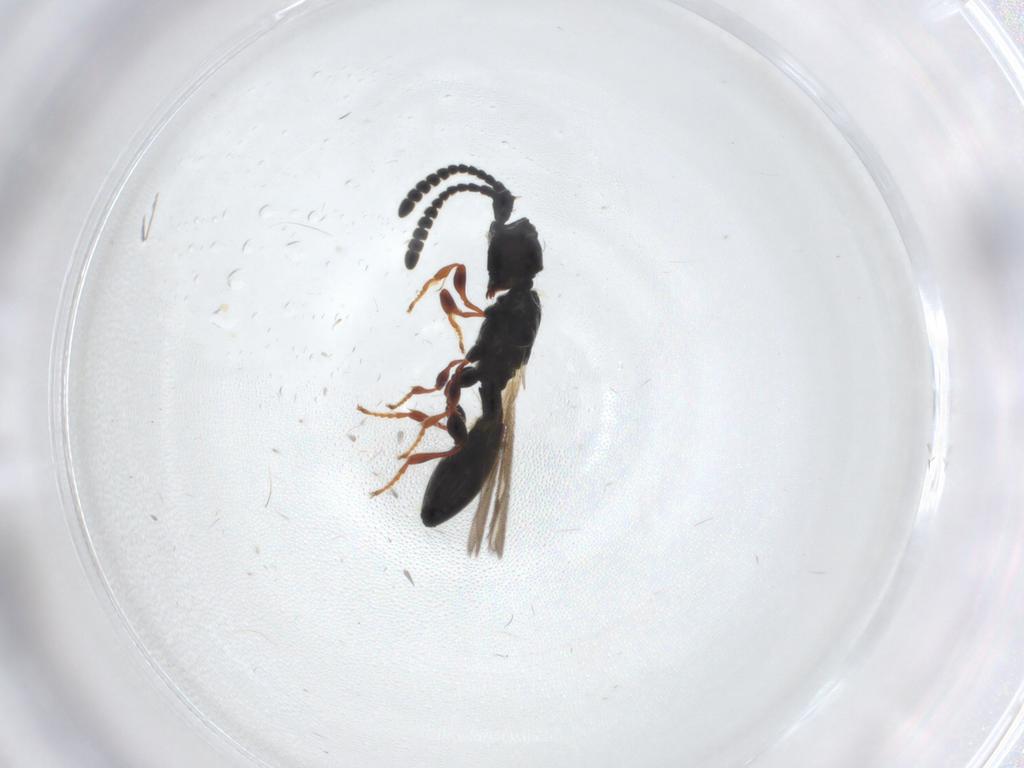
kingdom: Animalia
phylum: Arthropoda
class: Insecta
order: Hymenoptera
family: Diapriidae
